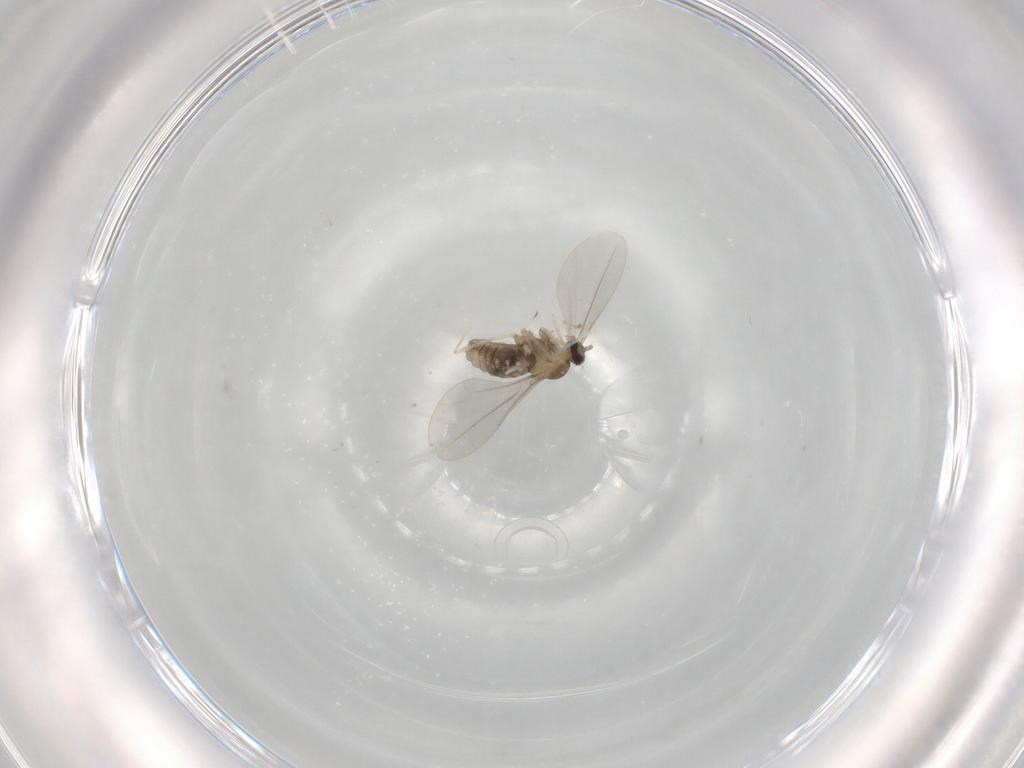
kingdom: Animalia
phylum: Arthropoda
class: Insecta
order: Diptera
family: Cecidomyiidae
